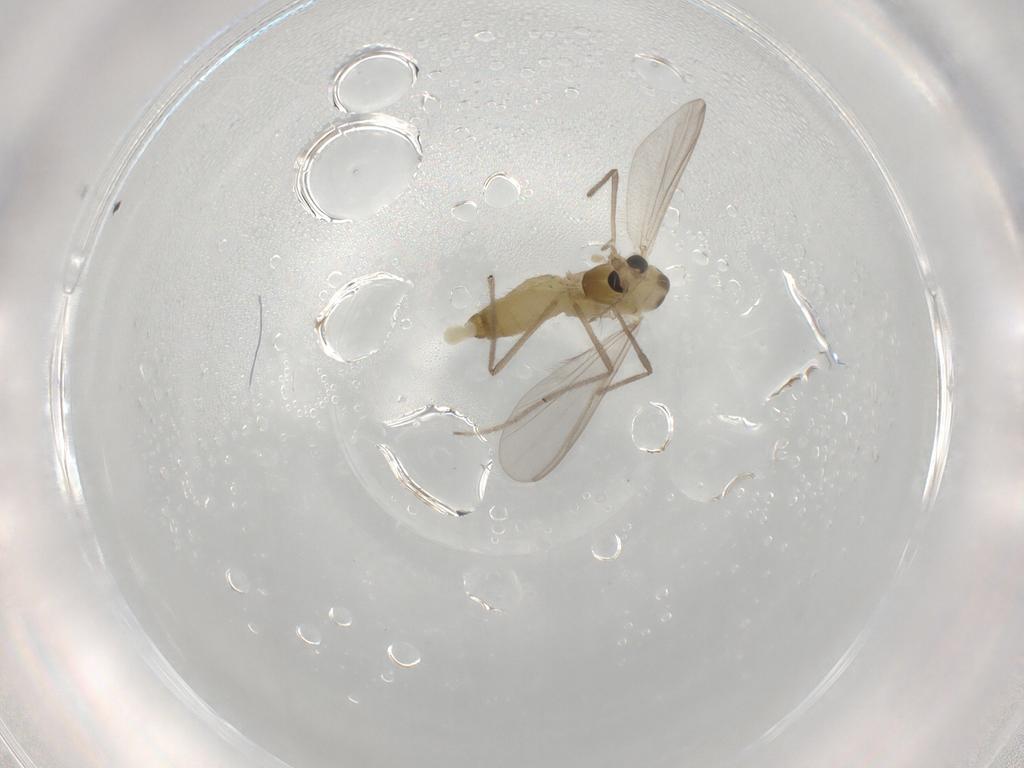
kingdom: Animalia
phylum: Arthropoda
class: Insecta
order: Diptera
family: Chironomidae
